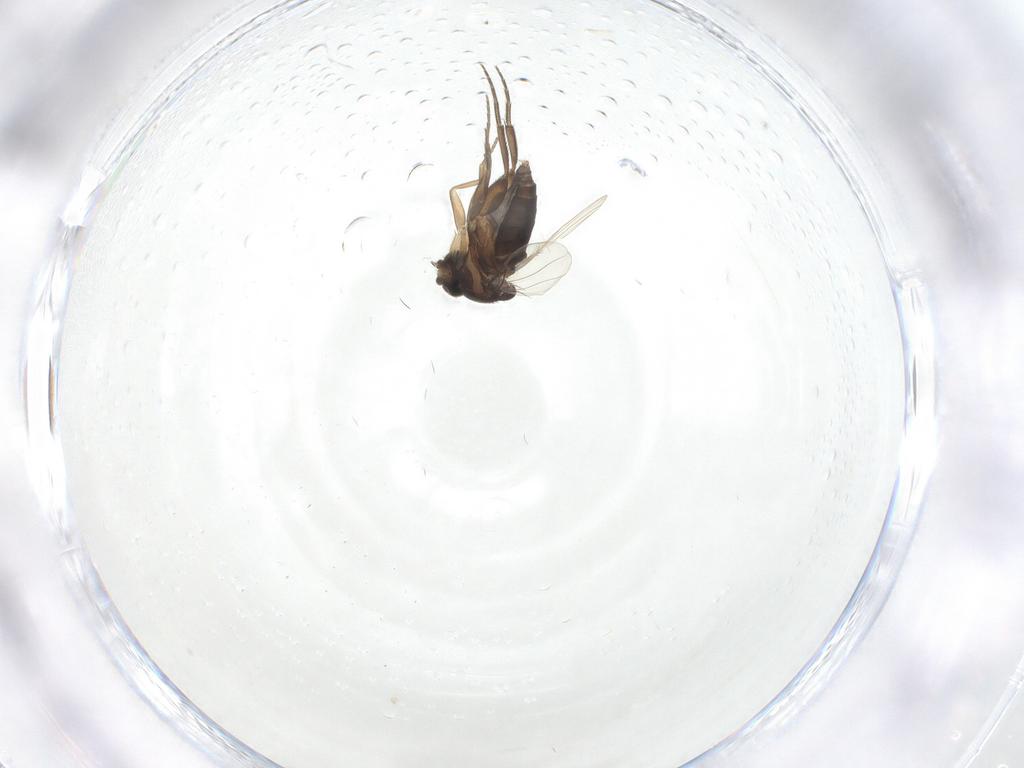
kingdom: Animalia
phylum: Arthropoda
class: Insecta
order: Diptera
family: Phoridae
